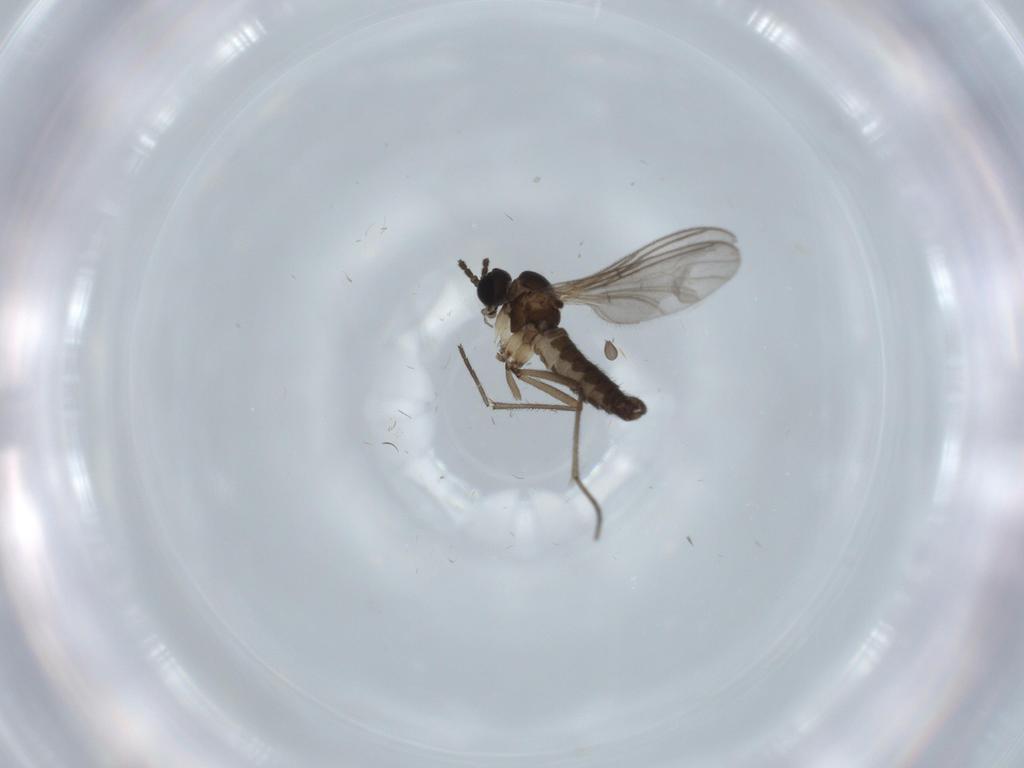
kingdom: Animalia
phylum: Arthropoda
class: Insecta
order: Diptera
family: Sciaridae
